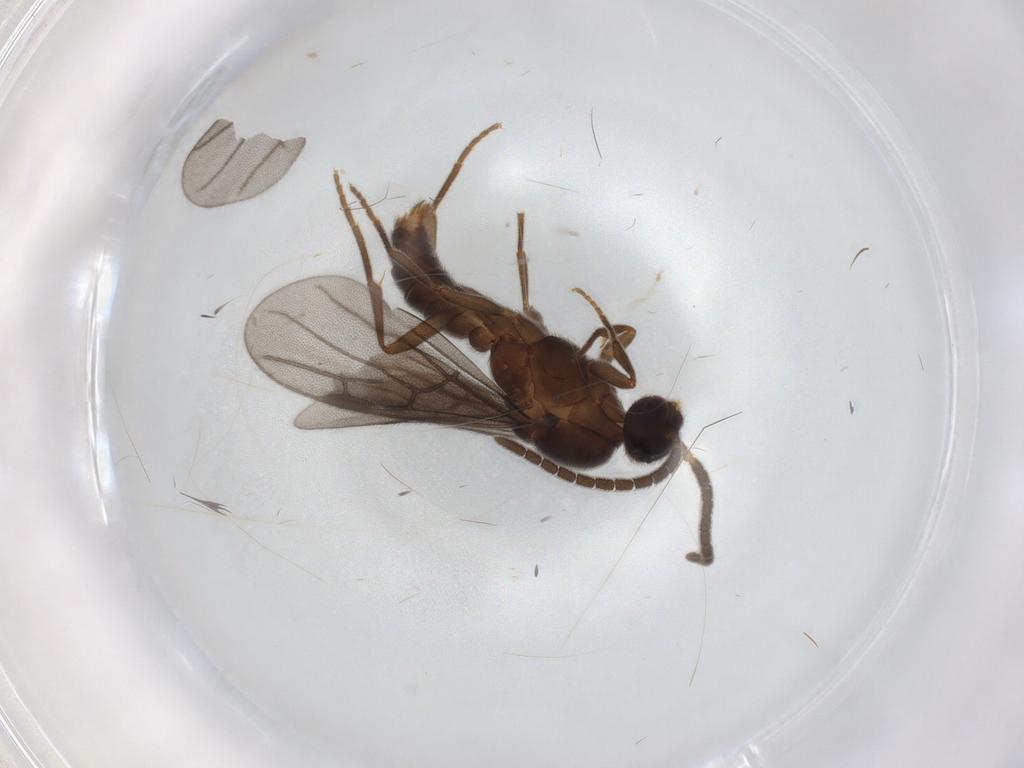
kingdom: Animalia
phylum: Arthropoda
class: Insecta
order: Hymenoptera
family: Formicidae
